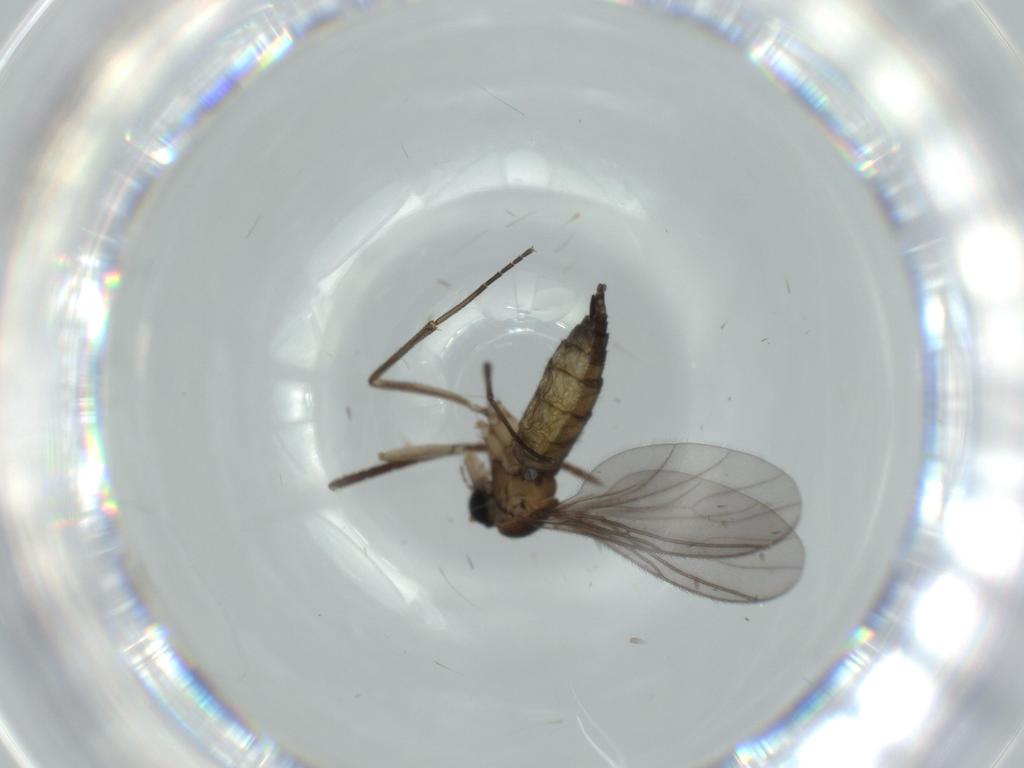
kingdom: Animalia
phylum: Arthropoda
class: Insecta
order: Diptera
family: Sciaridae
